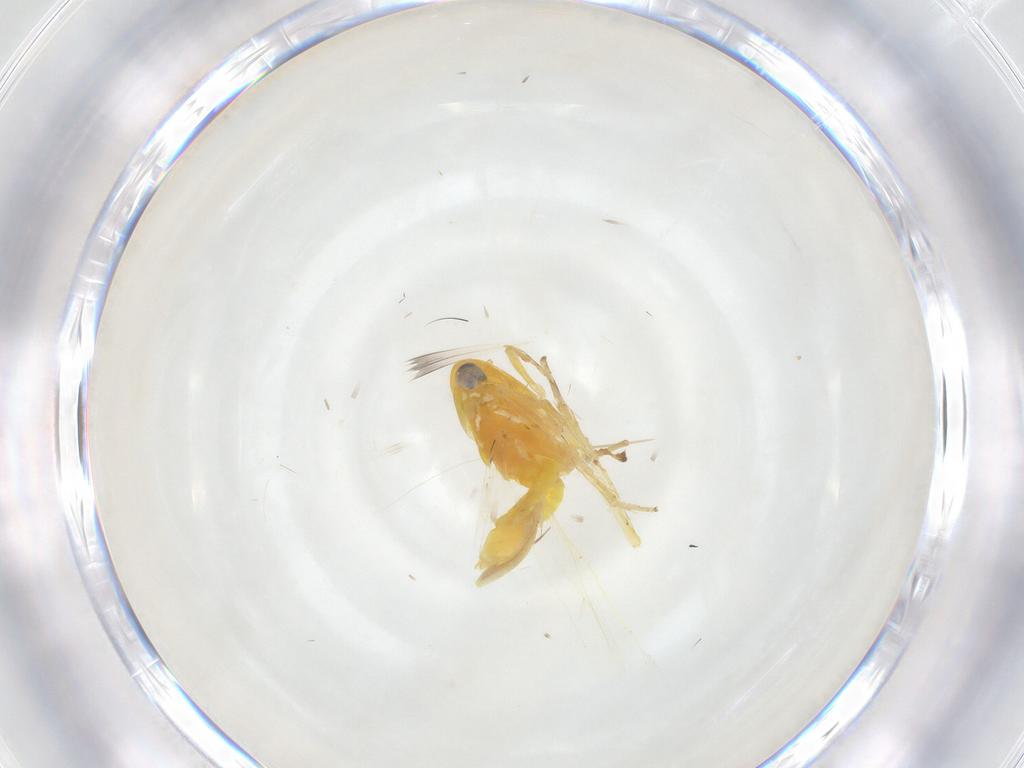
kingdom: Animalia
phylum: Arthropoda
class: Insecta
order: Hemiptera
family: Cicadellidae
